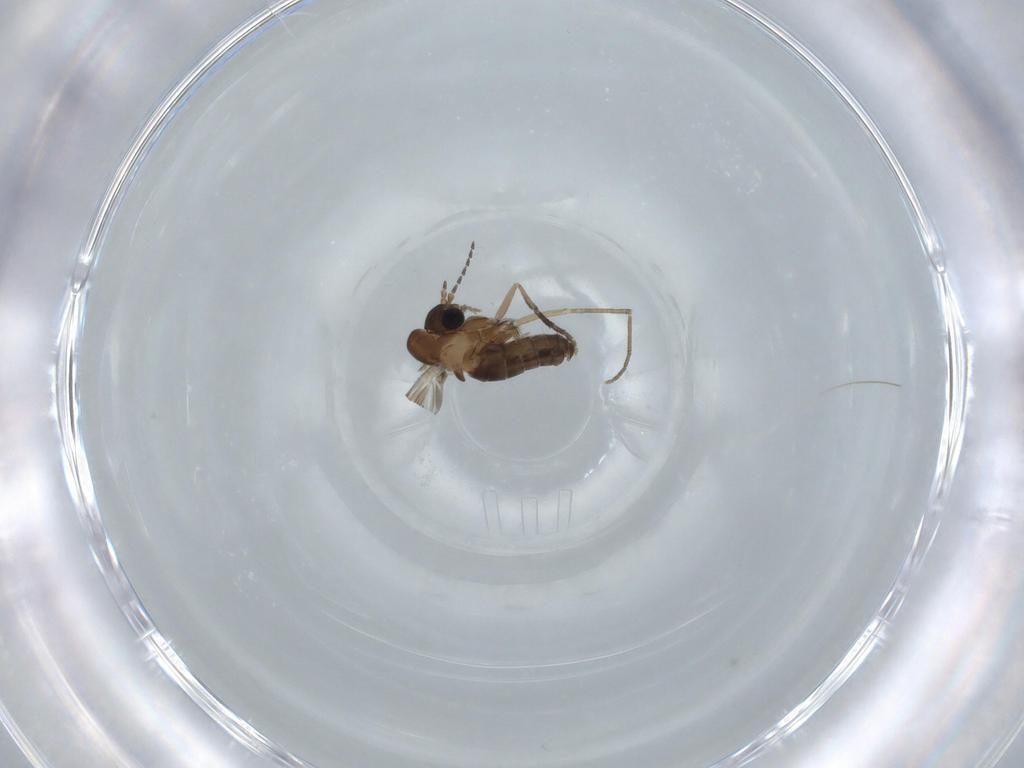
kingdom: Animalia
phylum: Arthropoda
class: Insecta
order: Diptera
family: Psychodidae
